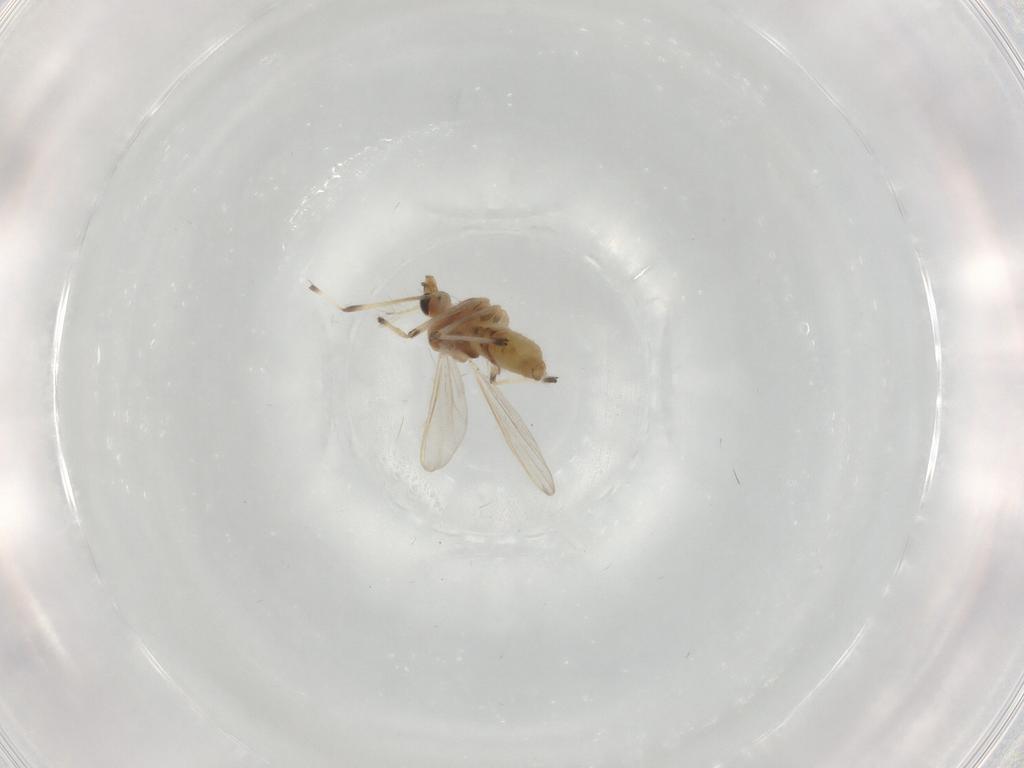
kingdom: Animalia
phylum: Arthropoda
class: Insecta
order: Diptera
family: Chironomidae
